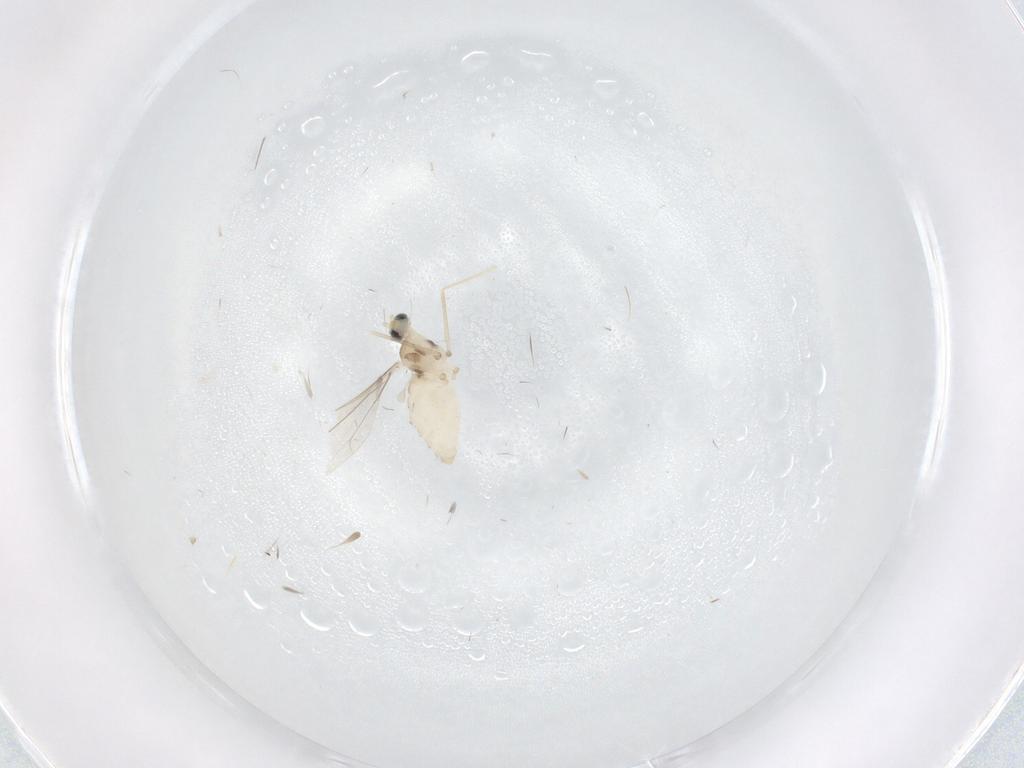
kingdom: Animalia
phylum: Arthropoda
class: Insecta
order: Diptera
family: Cecidomyiidae
